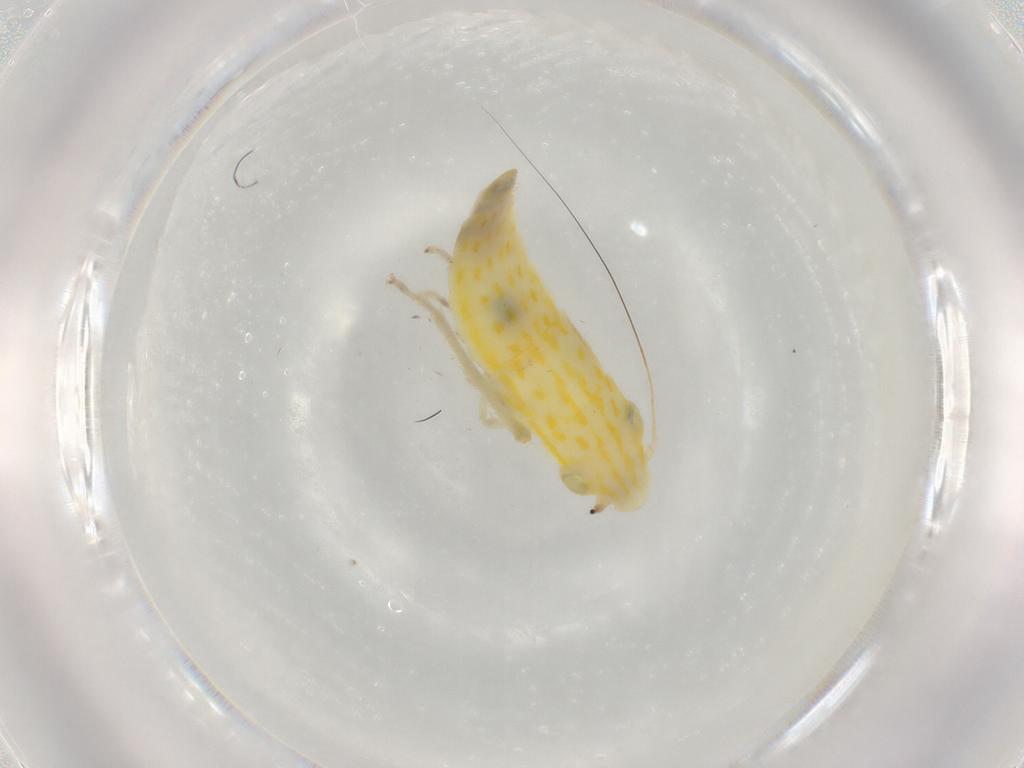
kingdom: Animalia
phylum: Arthropoda
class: Insecta
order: Hemiptera
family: Cicadellidae
